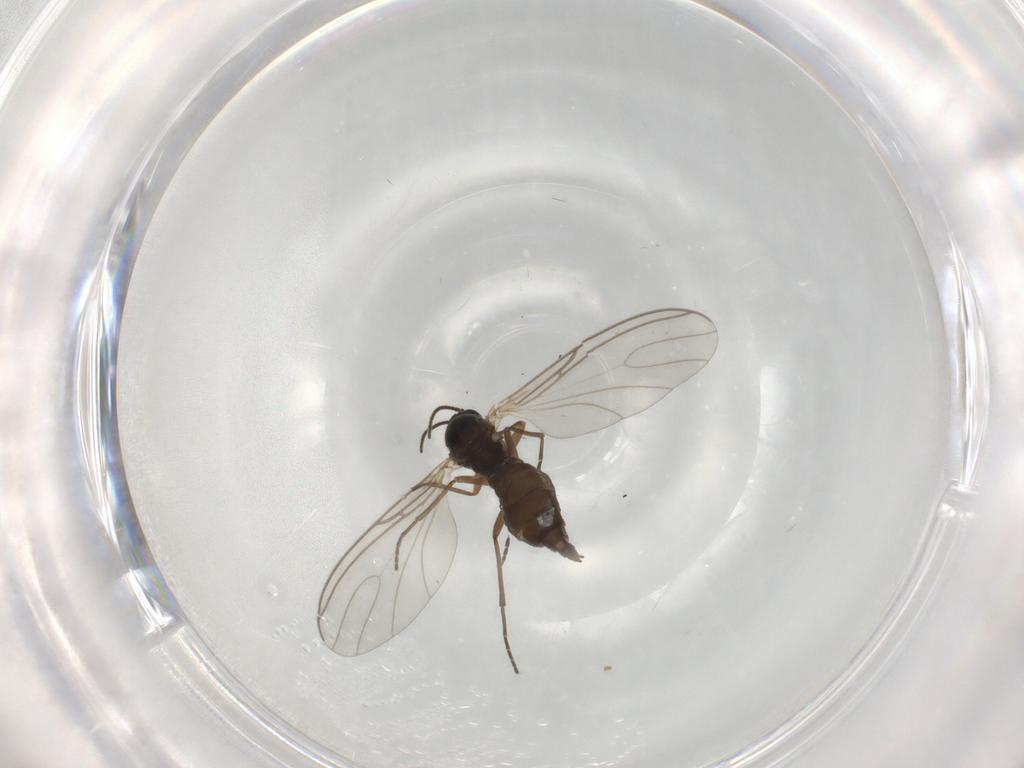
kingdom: Animalia
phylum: Arthropoda
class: Insecta
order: Diptera
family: Sciaridae
